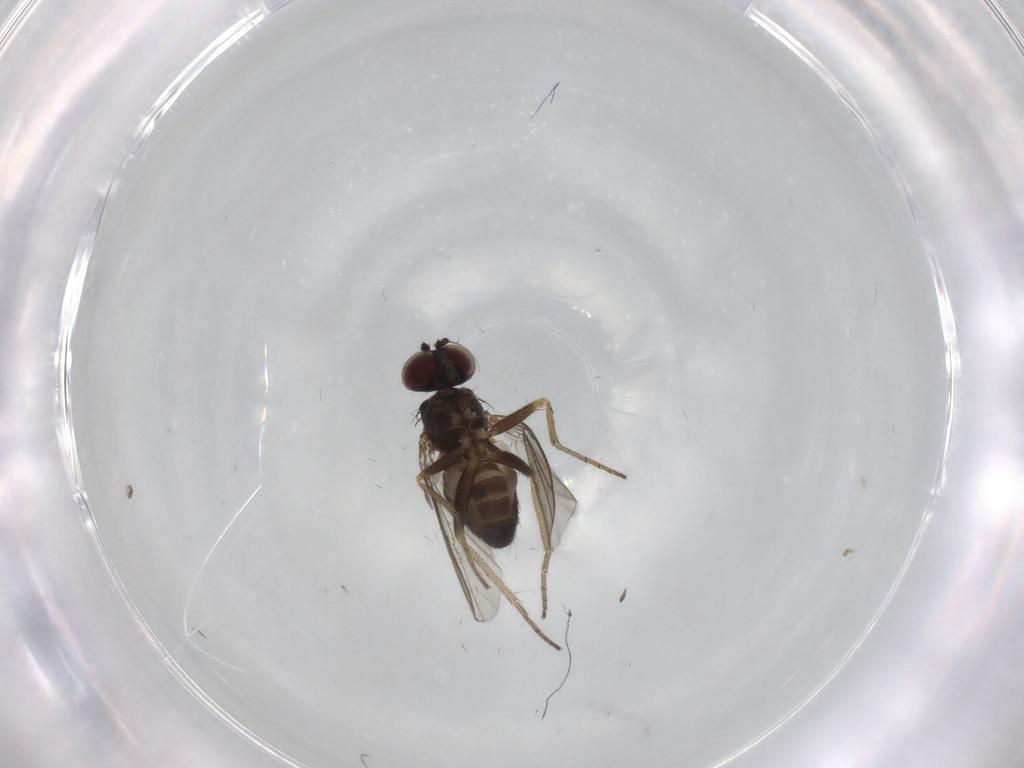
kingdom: Animalia
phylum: Arthropoda
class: Insecta
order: Diptera
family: Dolichopodidae
